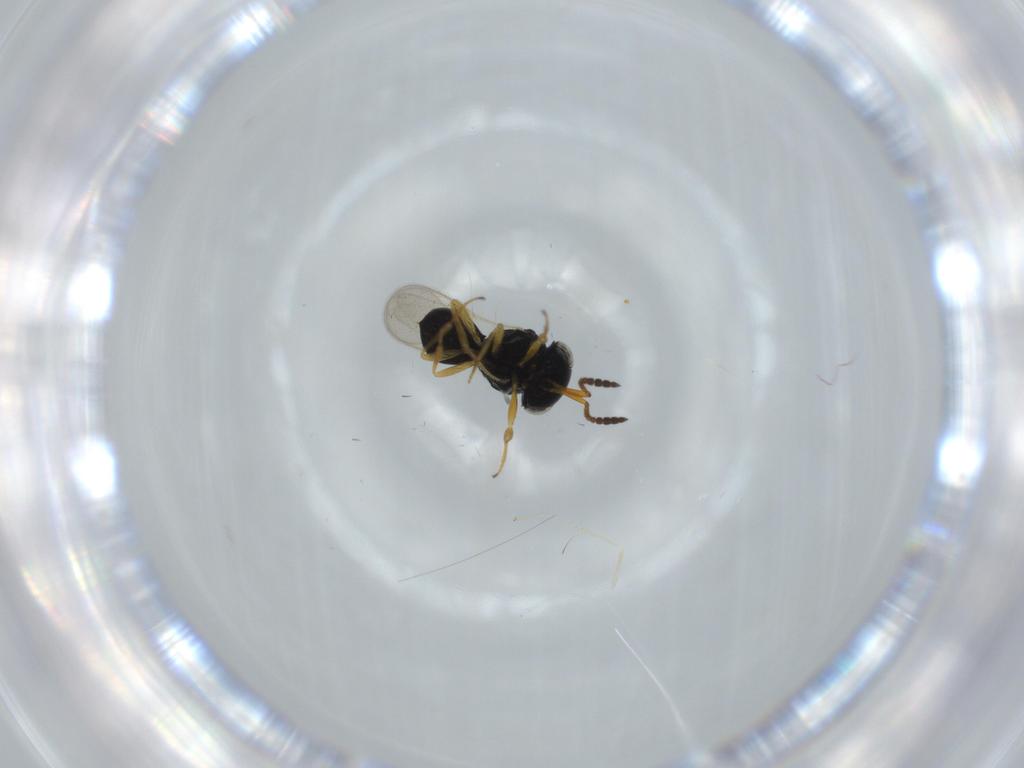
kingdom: Animalia
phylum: Arthropoda
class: Insecta
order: Hymenoptera
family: Scelionidae
